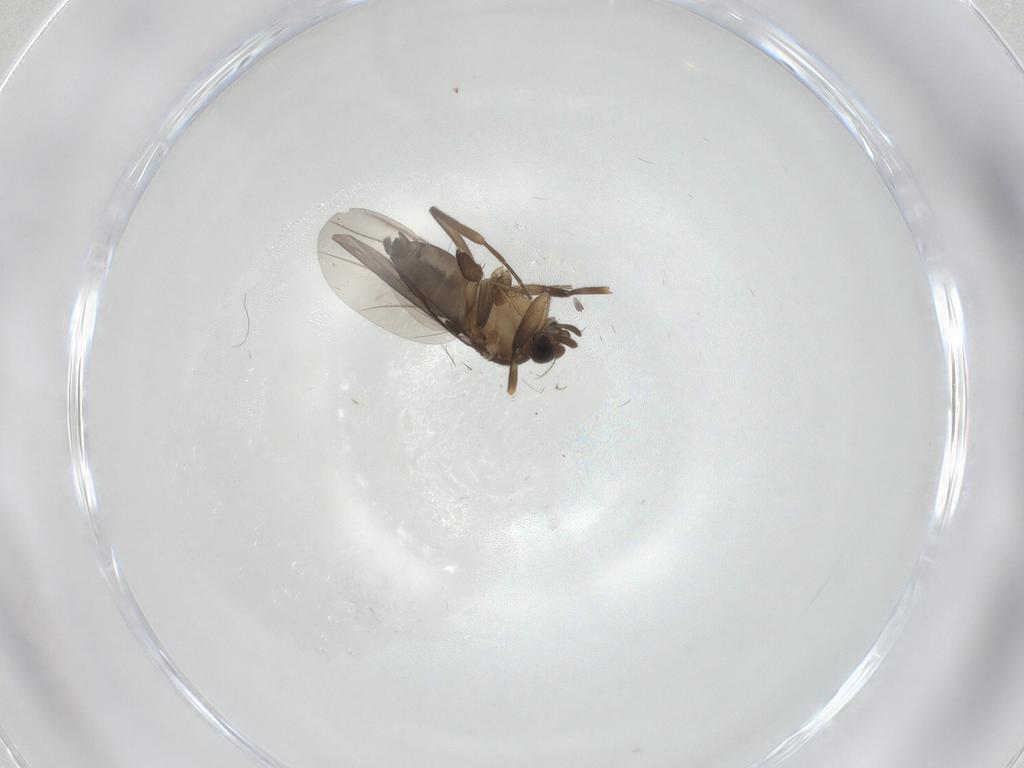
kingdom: Animalia
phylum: Arthropoda
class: Insecta
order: Diptera
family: Phoridae
